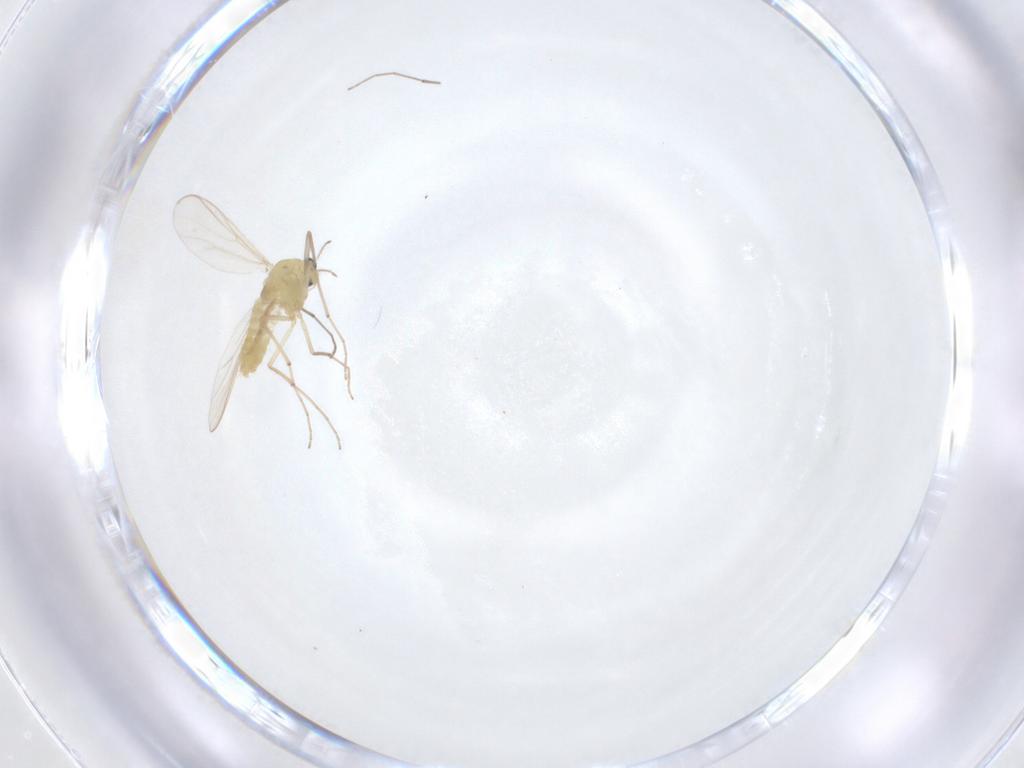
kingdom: Animalia
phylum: Arthropoda
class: Insecta
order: Diptera
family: Chironomidae
